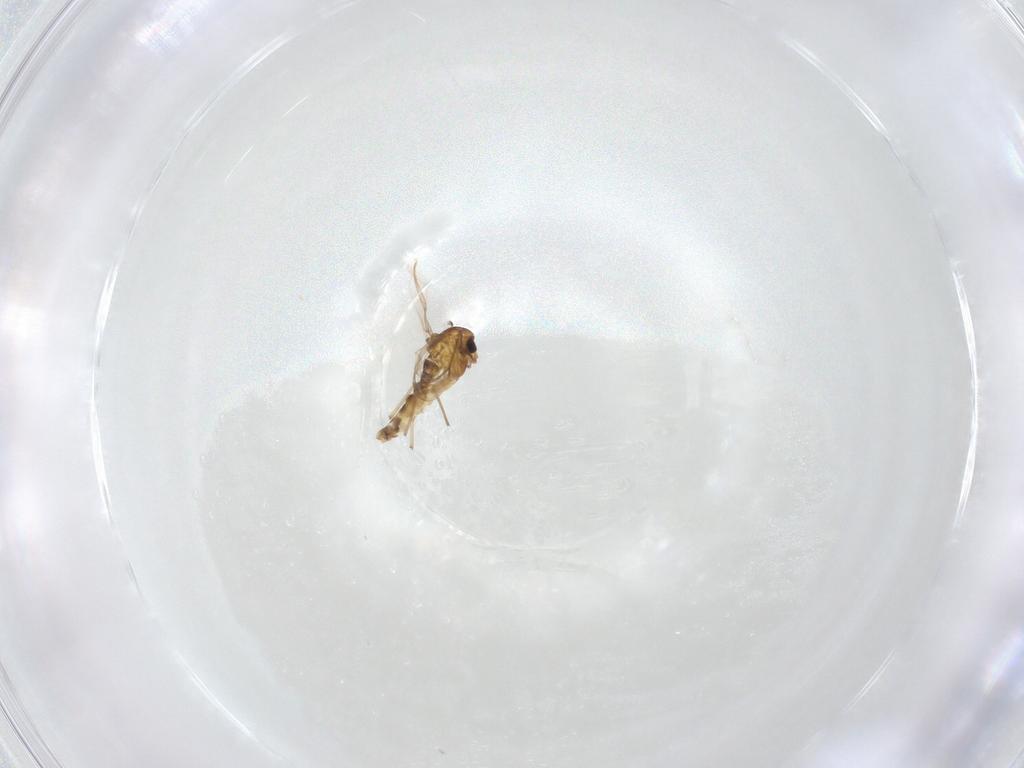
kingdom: Animalia
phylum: Arthropoda
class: Insecta
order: Diptera
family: Chironomidae
